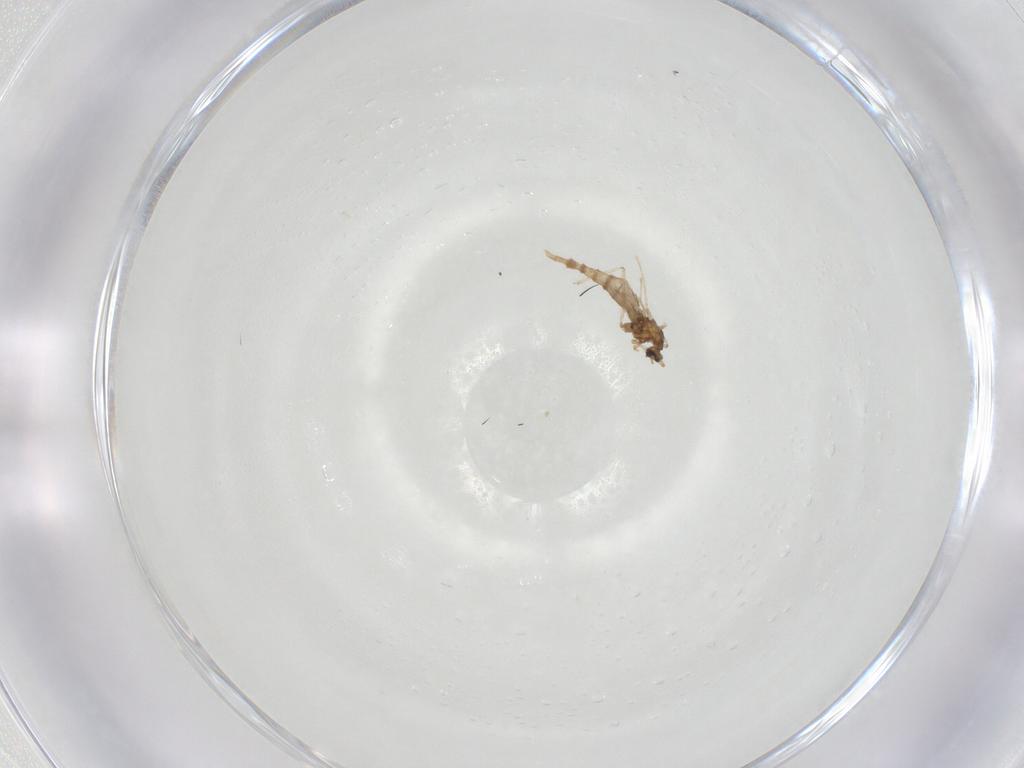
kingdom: Animalia
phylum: Arthropoda
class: Insecta
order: Diptera
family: Cecidomyiidae
